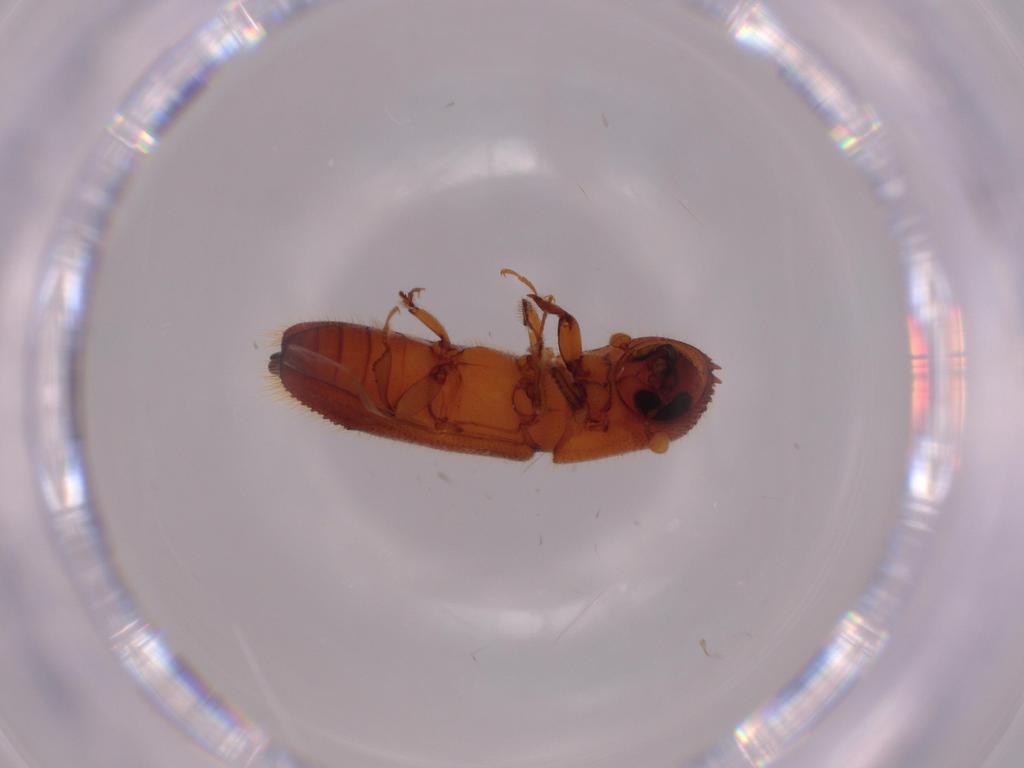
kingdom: Animalia
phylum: Arthropoda
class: Insecta
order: Coleoptera
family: Curculionidae
